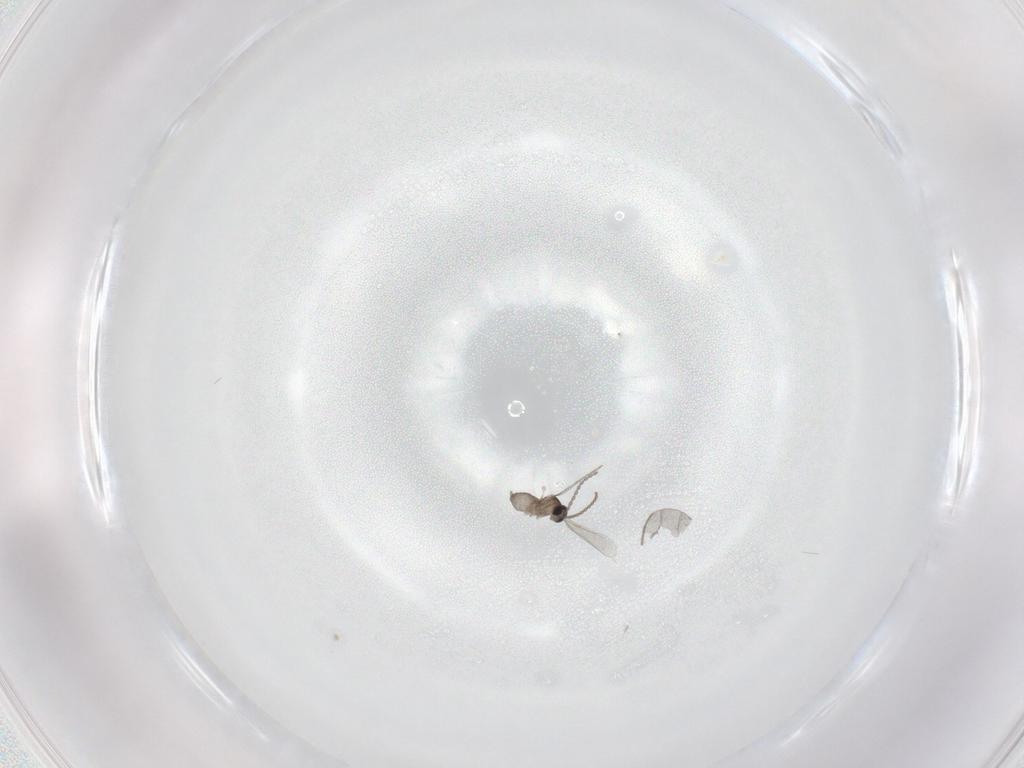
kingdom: Animalia
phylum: Arthropoda
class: Insecta
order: Diptera
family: Cecidomyiidae
